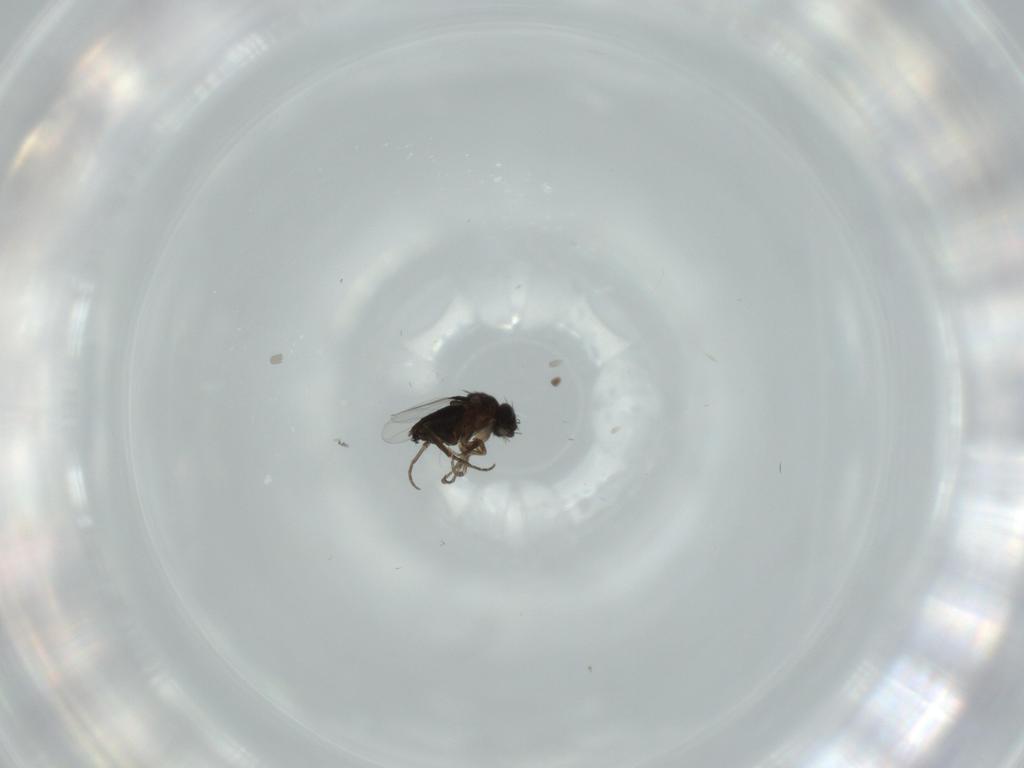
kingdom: Animalia
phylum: Arthropoda
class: Insecta
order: Diptera
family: Phoridae
